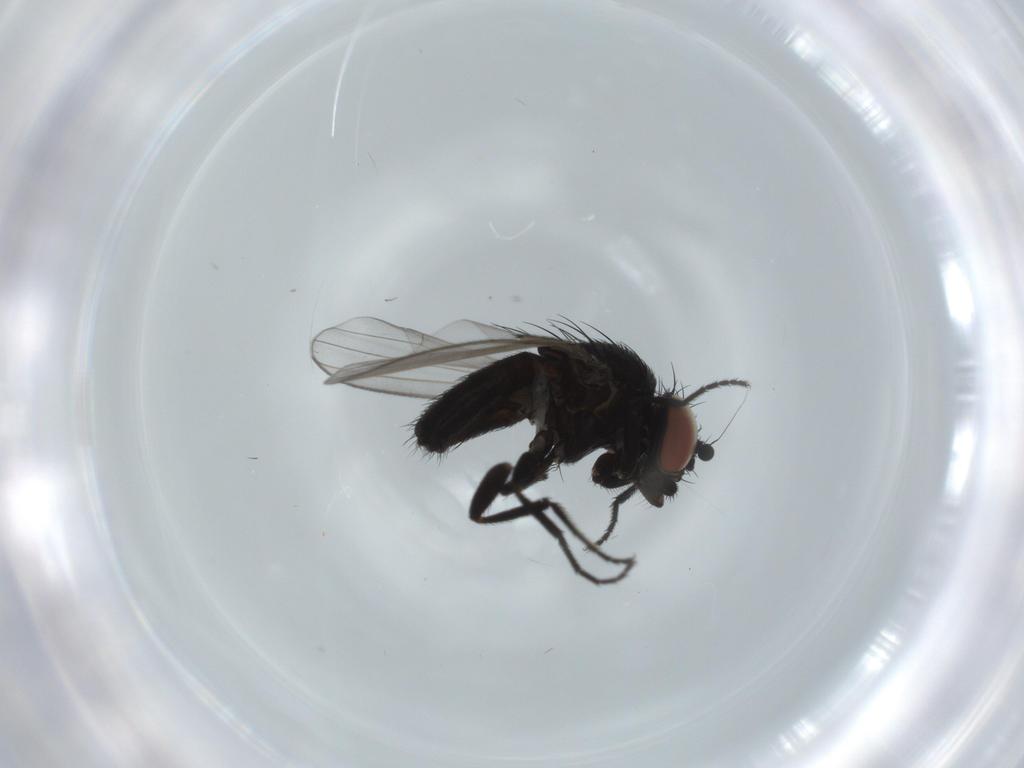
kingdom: Animalia
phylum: Arthropoda
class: Insecta
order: Diptera
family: Milichiidae
